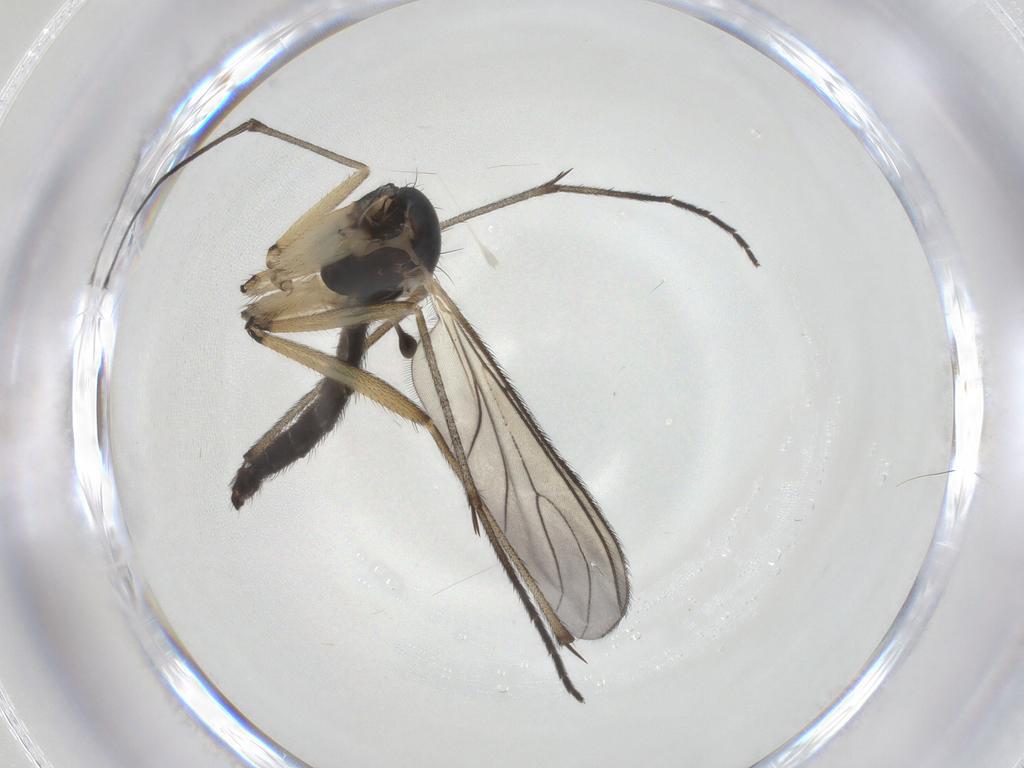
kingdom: Animalia
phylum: Arthropoda
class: Insecta
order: Diptera
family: Sciaridae
